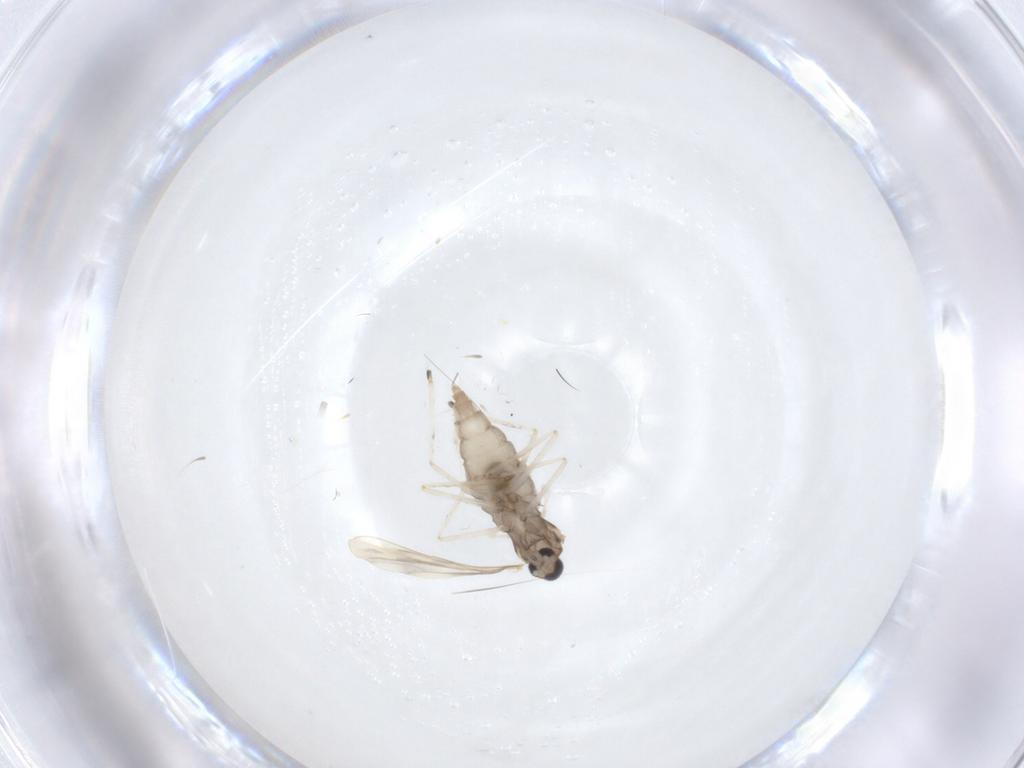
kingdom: Animalia
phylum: Arthropoda
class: Insecta
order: Diptera
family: Cecidomyiidae
